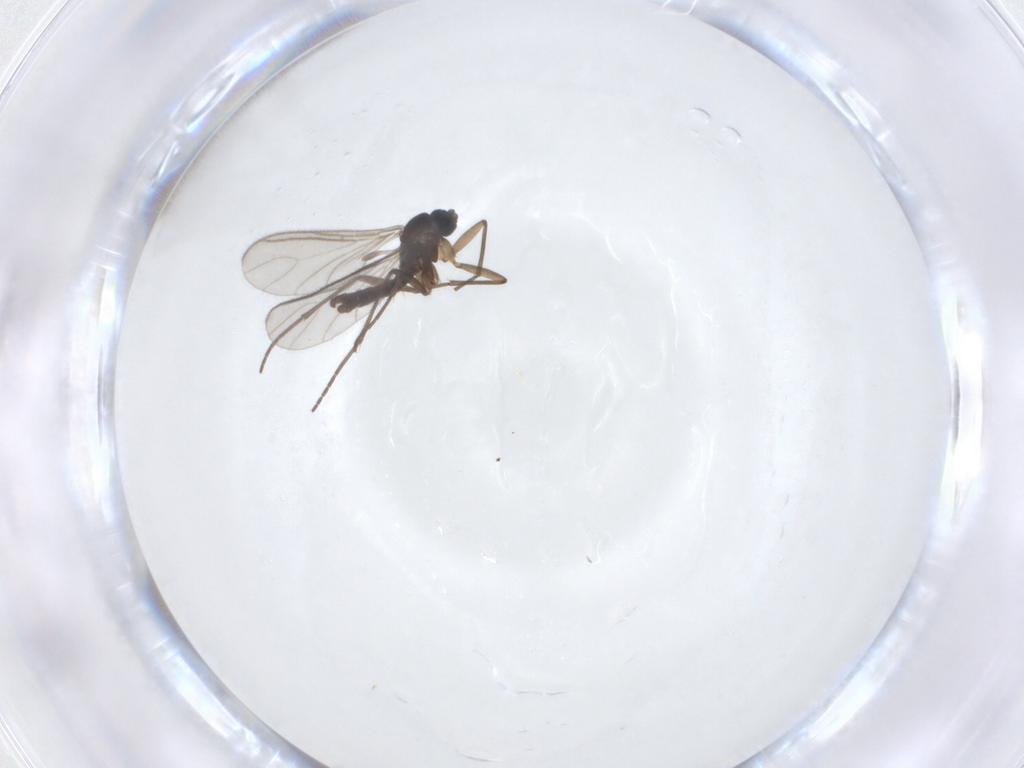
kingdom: Animalia
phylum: Arthropoda
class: Insecta
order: Diptera
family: Sciaridae
